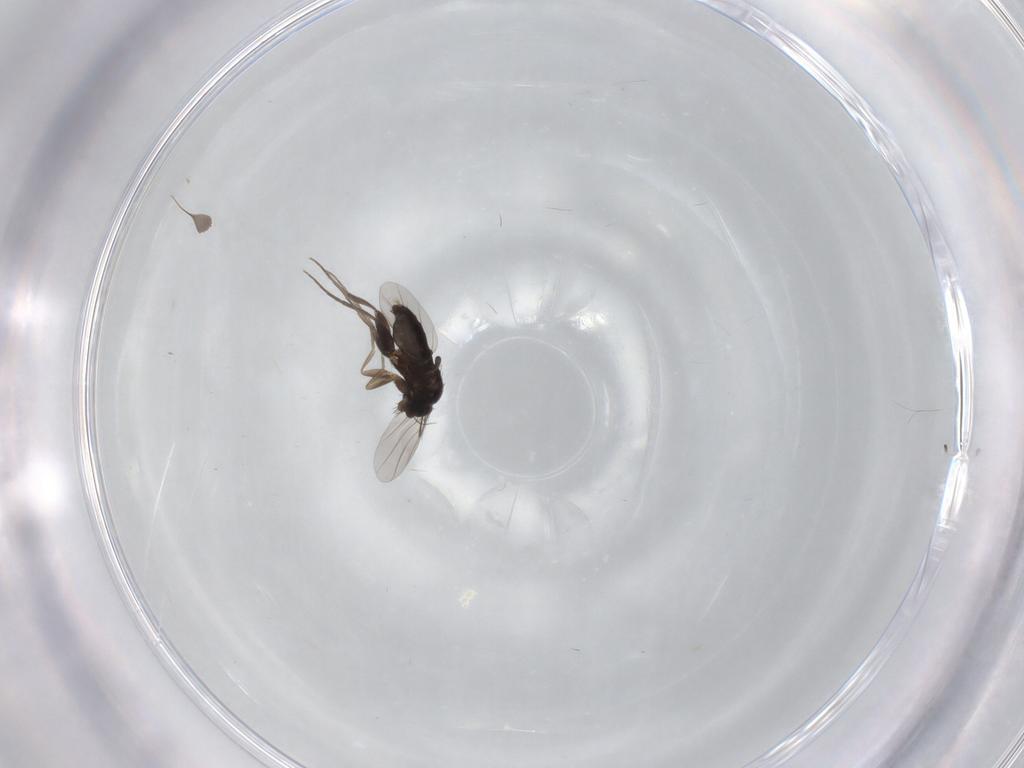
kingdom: Animalia
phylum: Arthropoda
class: Insecta
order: Diptera
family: Phoridae
